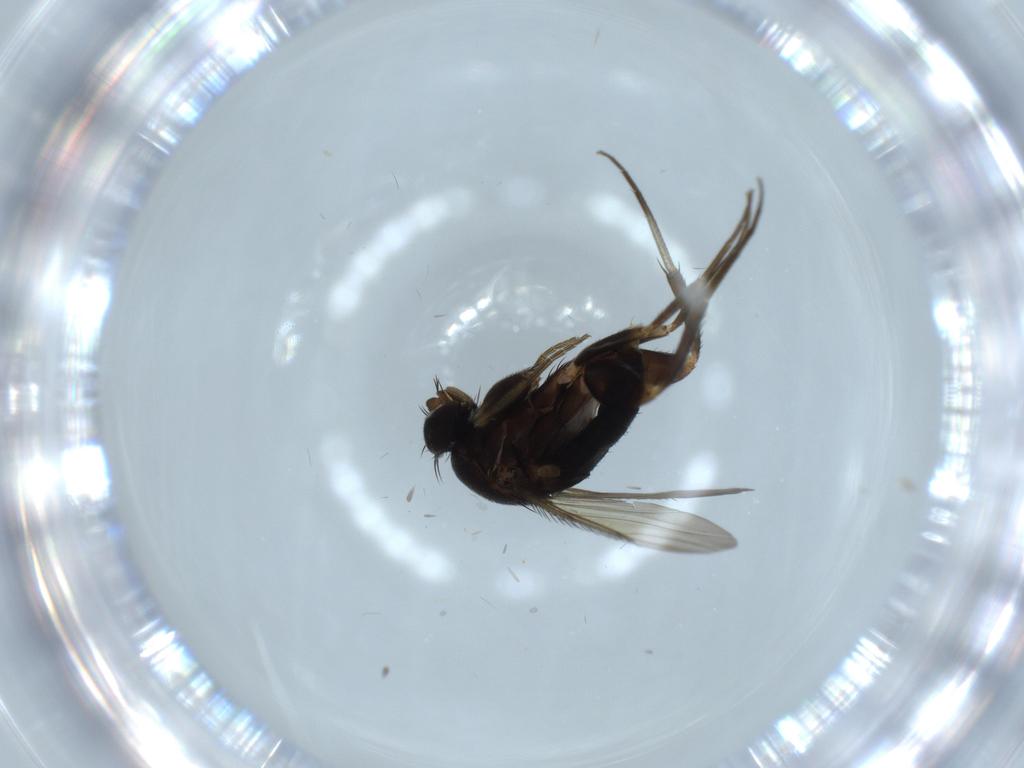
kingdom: Animalia
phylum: Arthropoda
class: Insecta
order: Diptera
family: Phoridae
